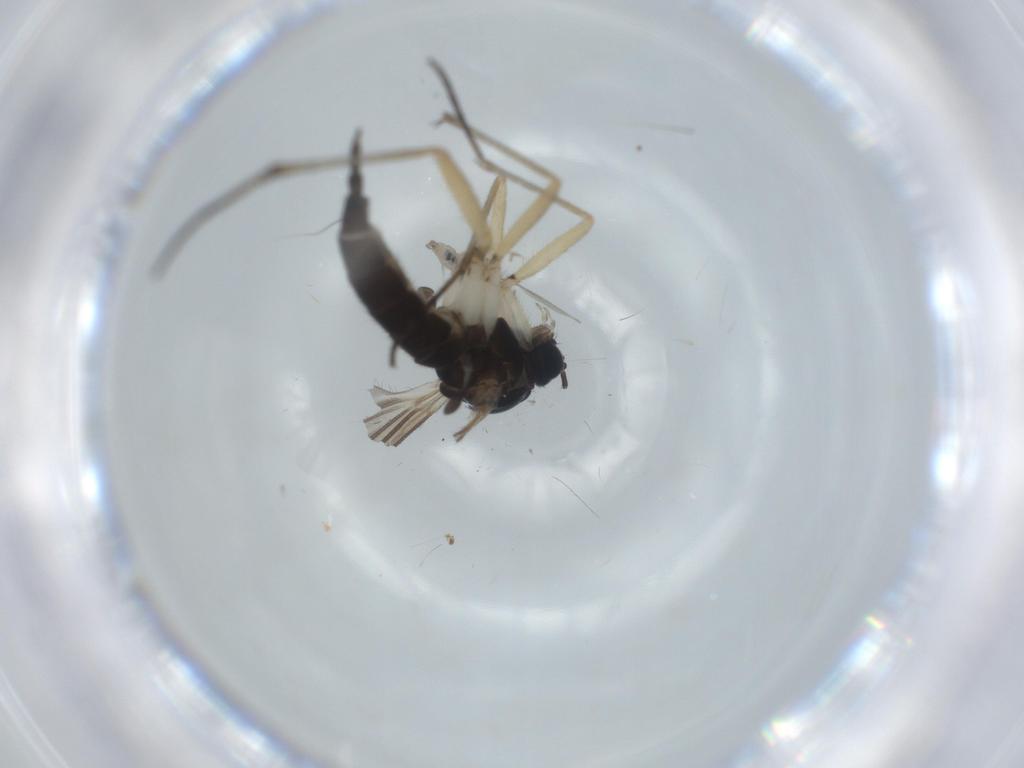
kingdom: Animalia
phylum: Arthropoda
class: Insecta
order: Diptera
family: Sciaridae
